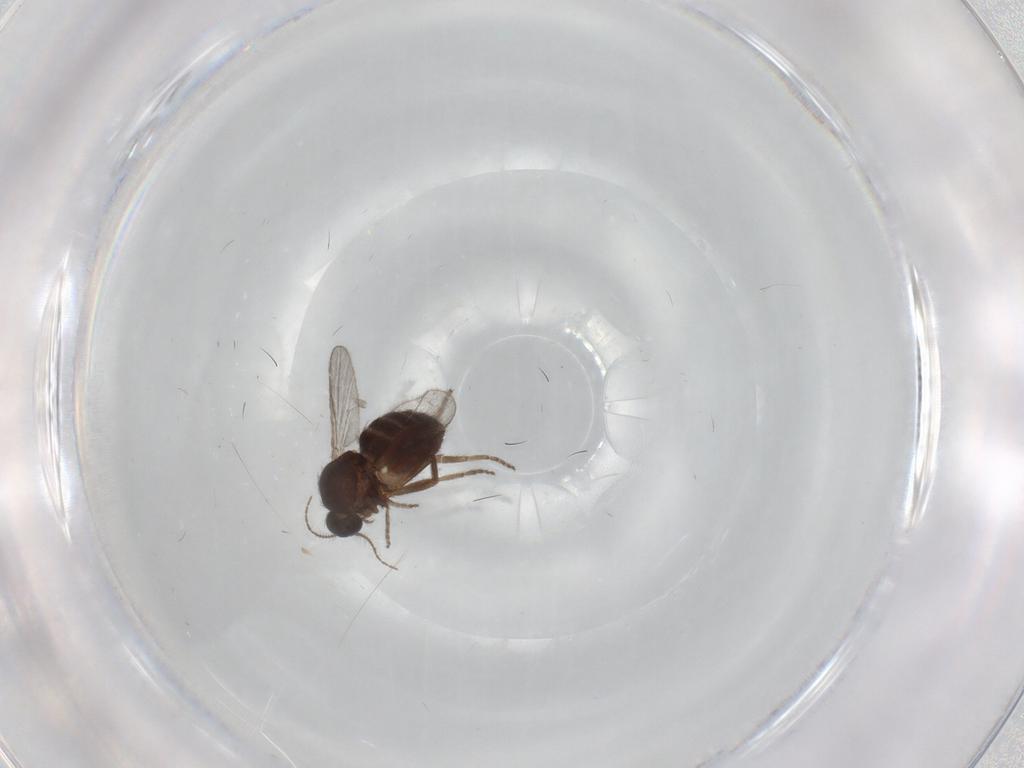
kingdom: Animalia
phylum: Arthropoda
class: Insecta
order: Diptera
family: Ceratopogonidae
